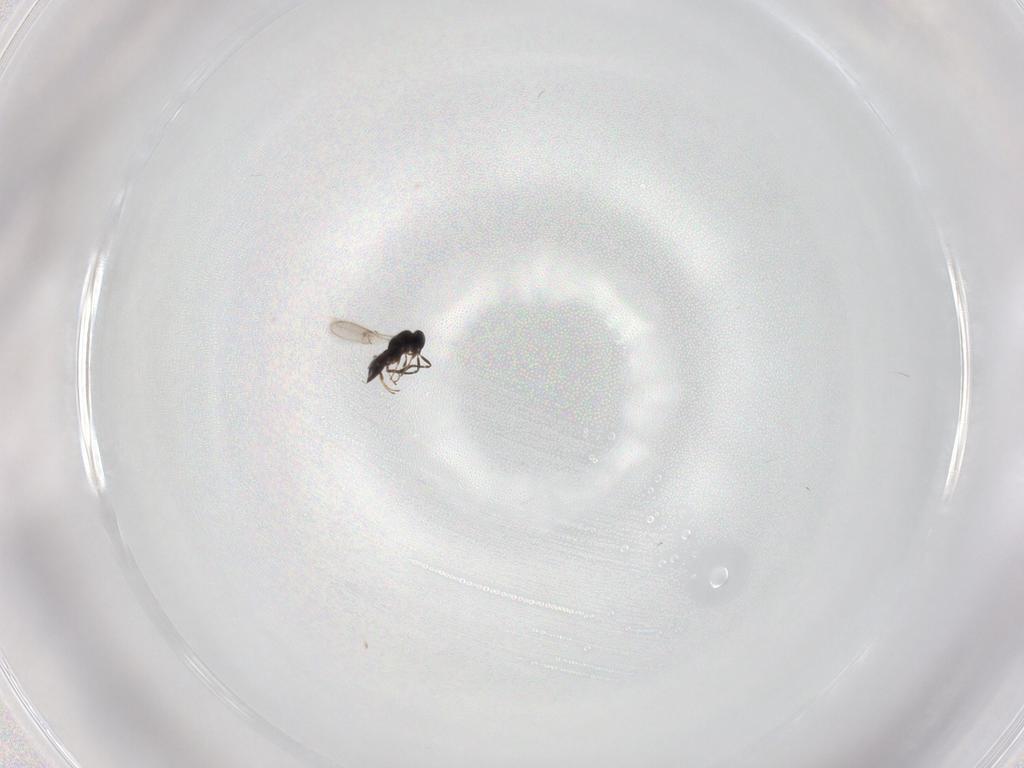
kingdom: Animalia
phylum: Arthropoda
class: Insecta
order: Hymenoptera
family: Scelionidae
